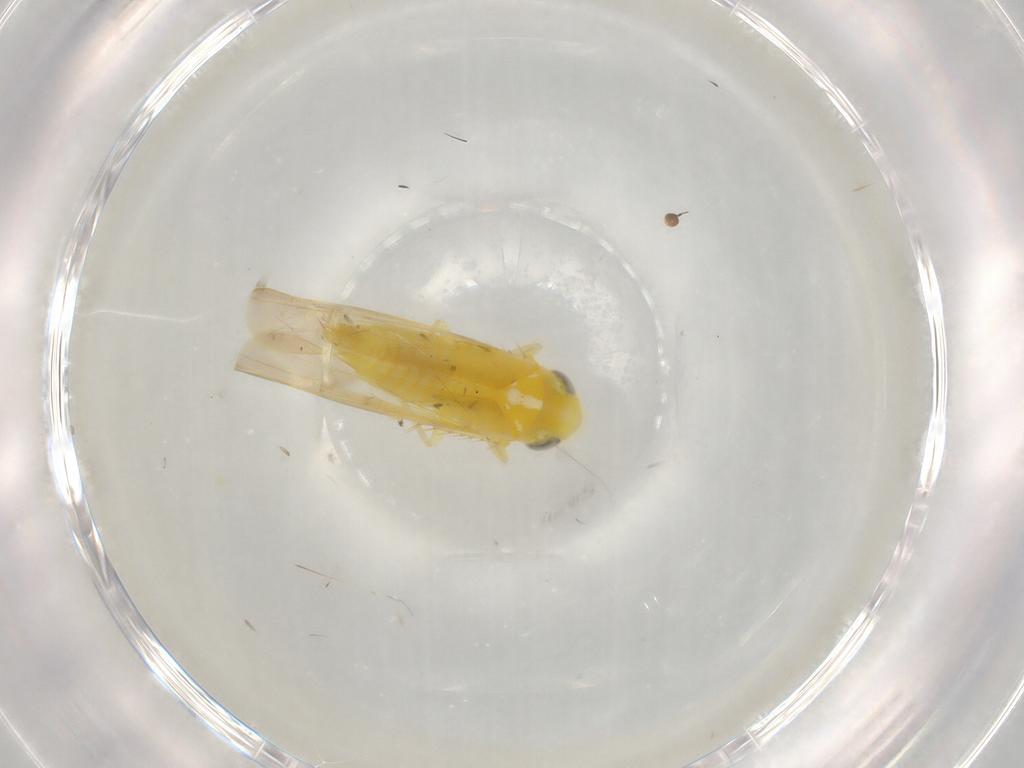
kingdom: Animalia
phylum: Arthropoda
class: Insecta
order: Hemiptera
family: Cicadellidae
